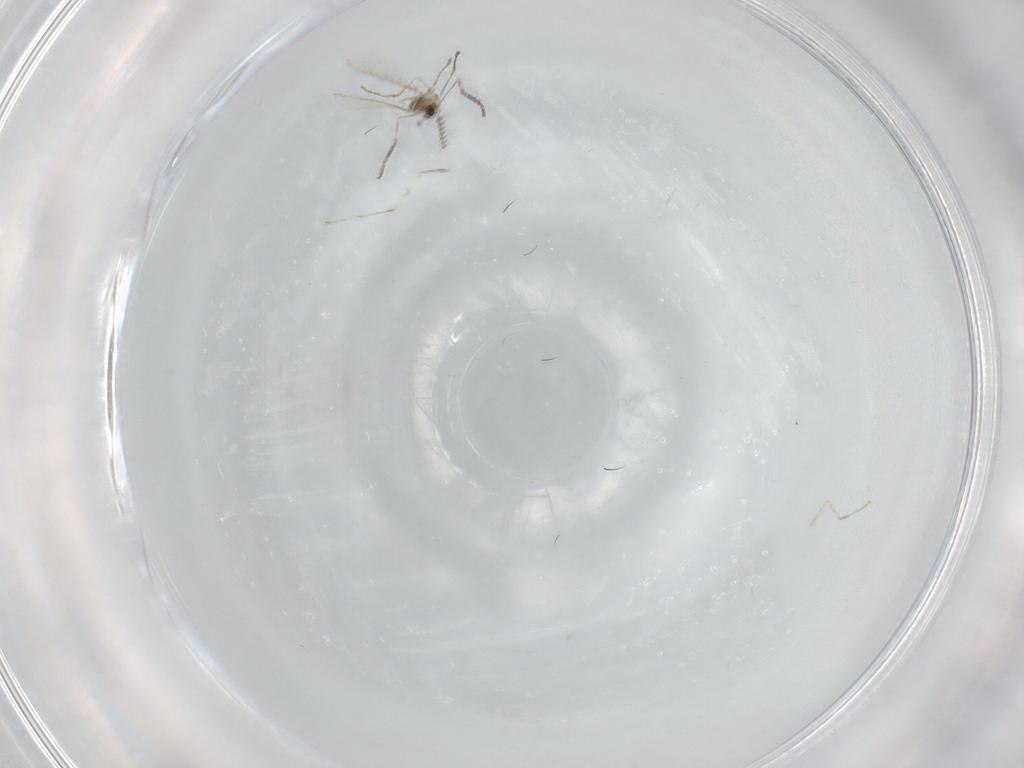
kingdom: Animalia
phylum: Arthropoda
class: Insecta
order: Diptera
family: Cecidomyiidae
